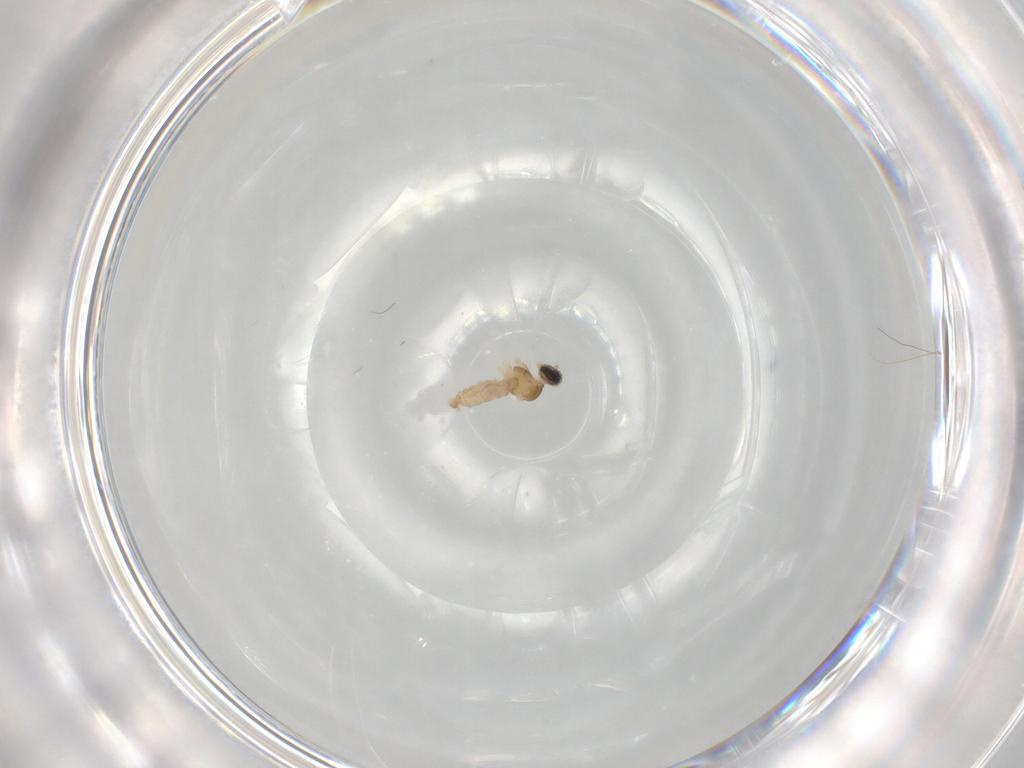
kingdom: Animalia
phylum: Arthropoda
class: Insecta
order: Diptera
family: Cecidomyiidae
